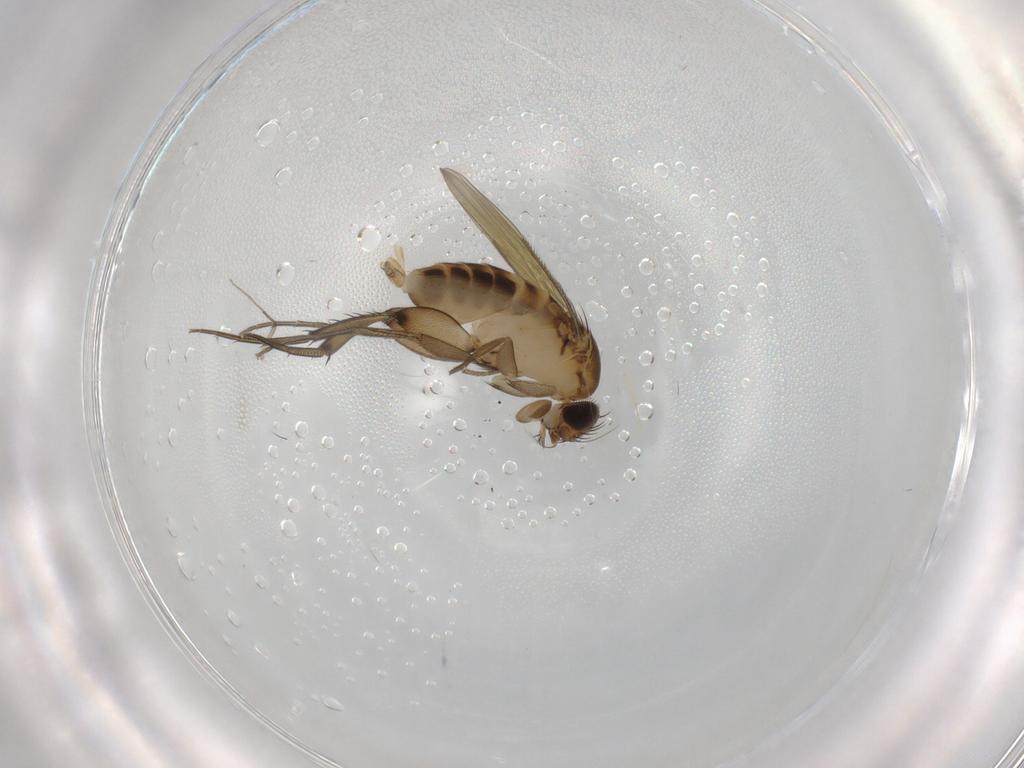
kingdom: Animalia
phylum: Arthropoda
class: Insecta
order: Diptera
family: Phoridae
